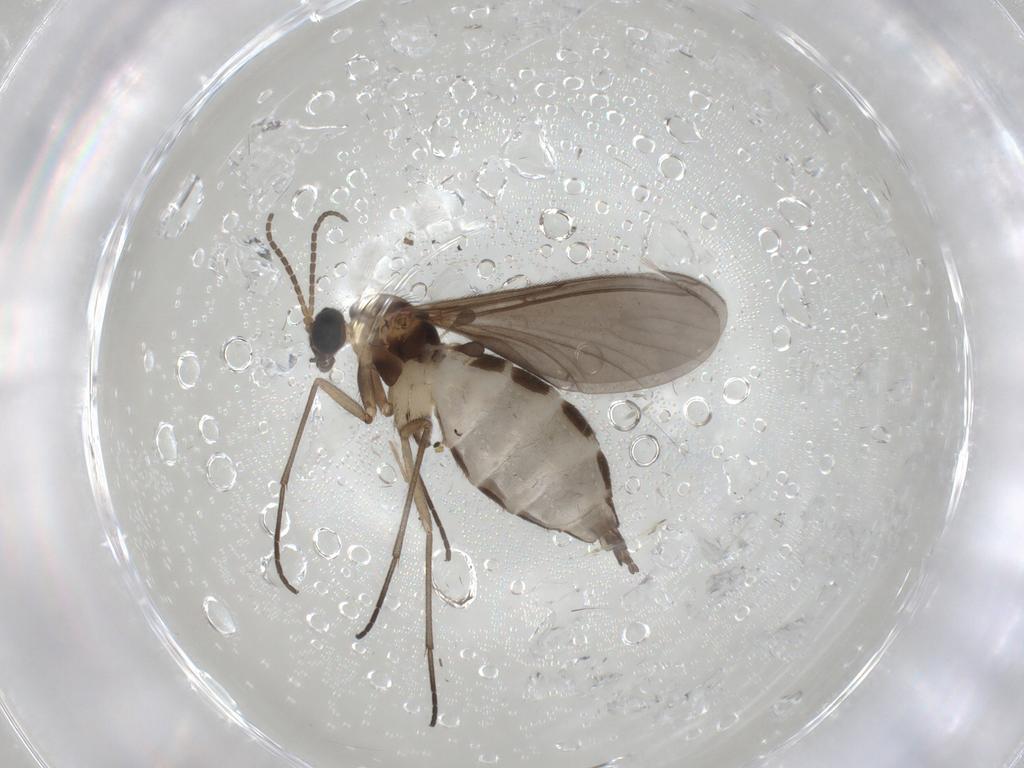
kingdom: Animalia
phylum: Arthropoda
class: Insecta
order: Diptera
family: Sciaridae
